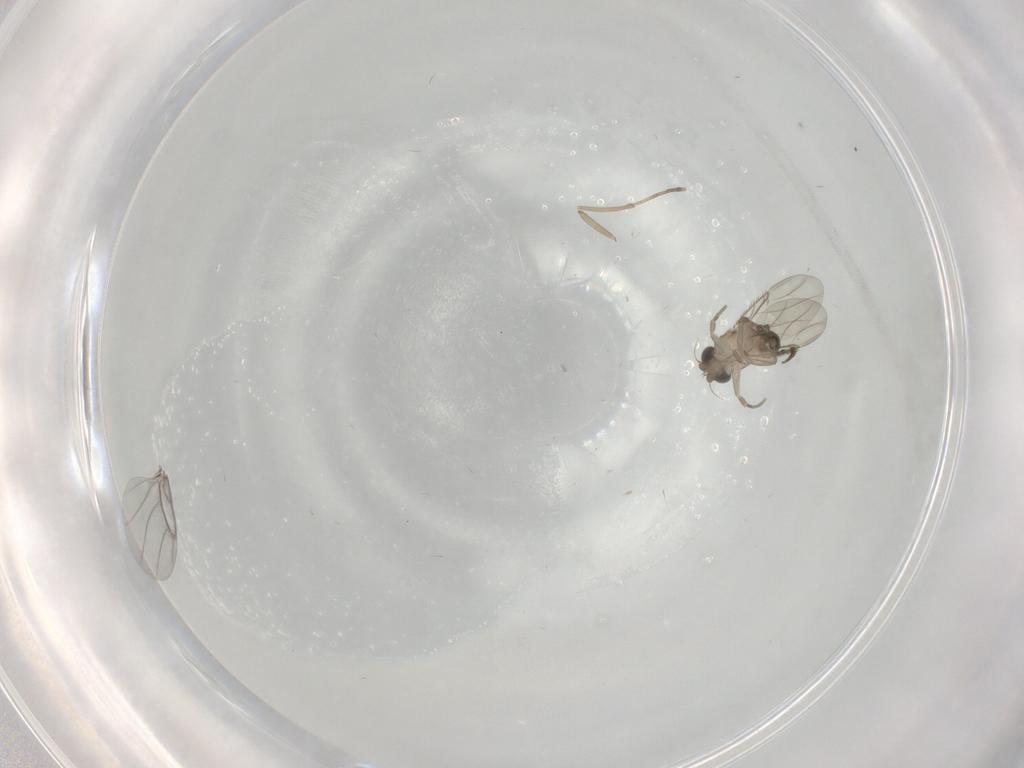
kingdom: Animalia
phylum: Arthropoda
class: Insecta
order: Diptera
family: Phoridae
